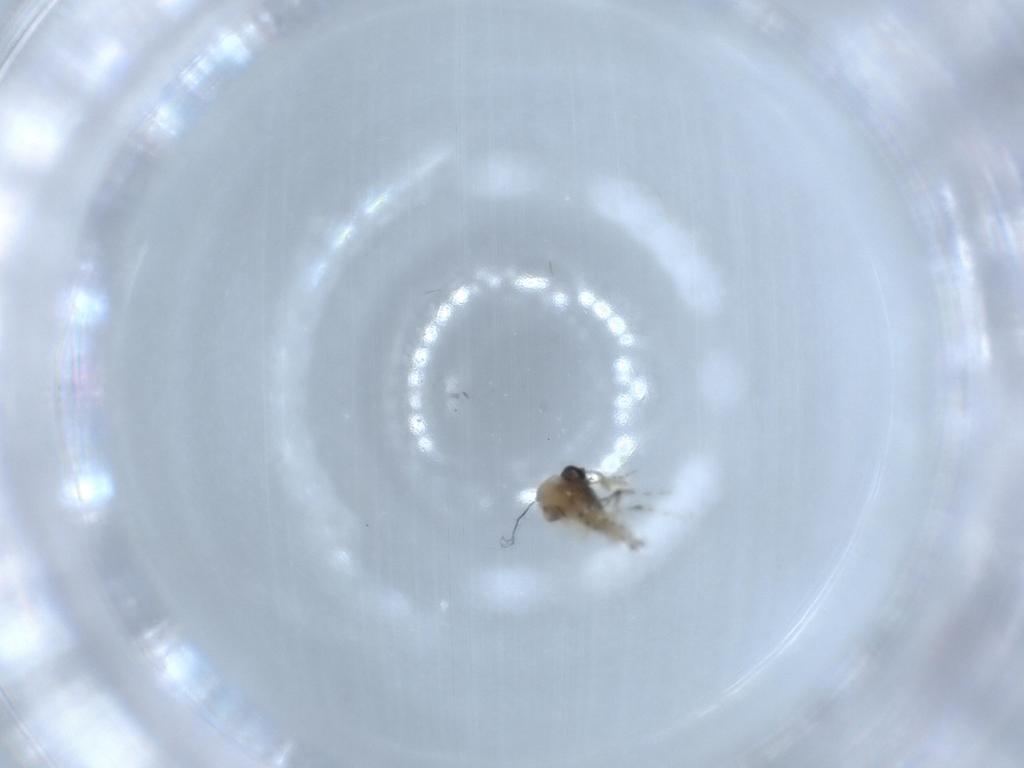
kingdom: Animalia
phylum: Arthropoda
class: Insecta
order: Diptera
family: Ceratopogonidae
